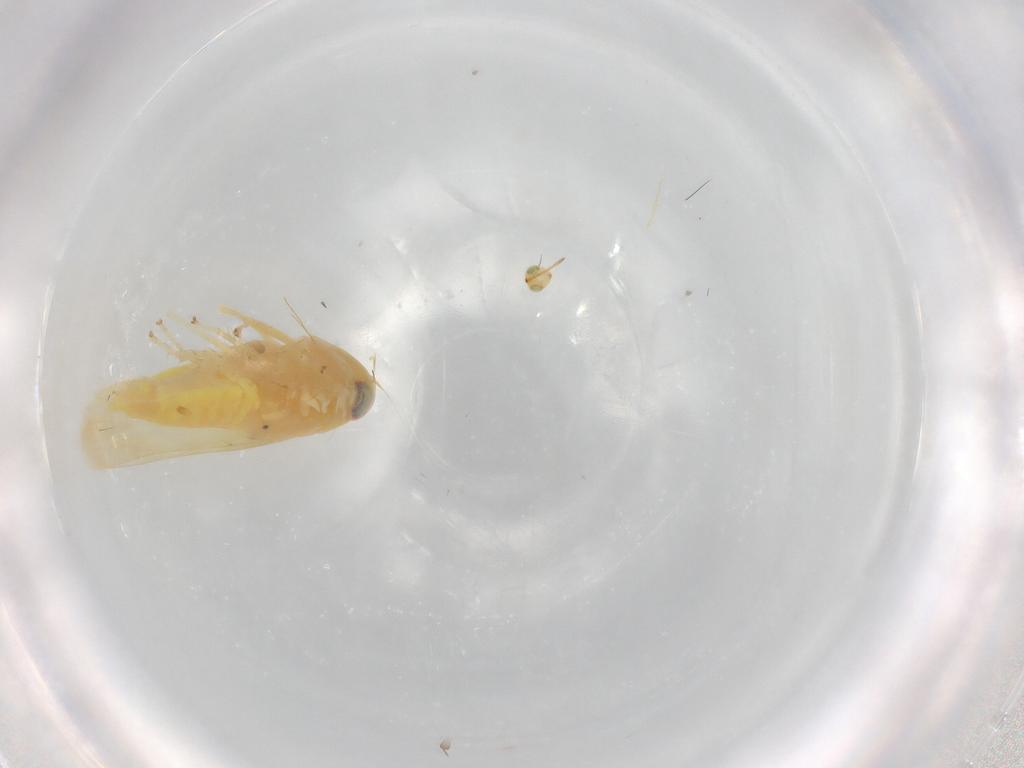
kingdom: Animalia
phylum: Arthropoda
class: Insecta
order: Hemiptera
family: Cicadellidae
